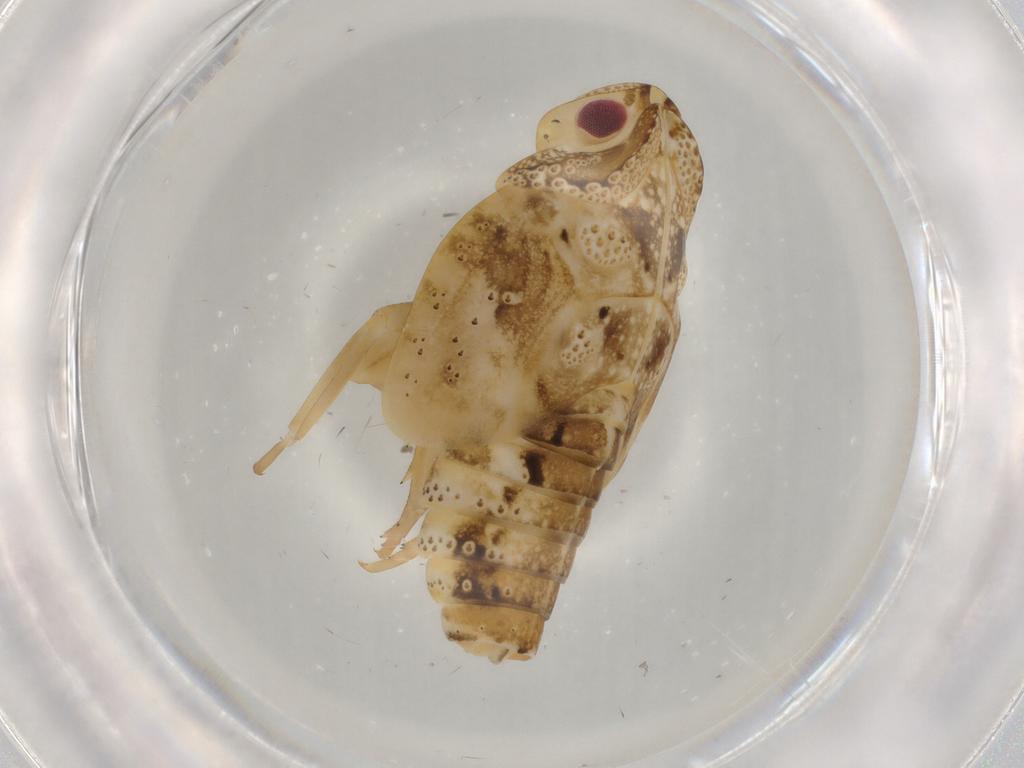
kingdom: Animalia
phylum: Arthropoda
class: Insecta
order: Hemiptera
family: Flatidae
